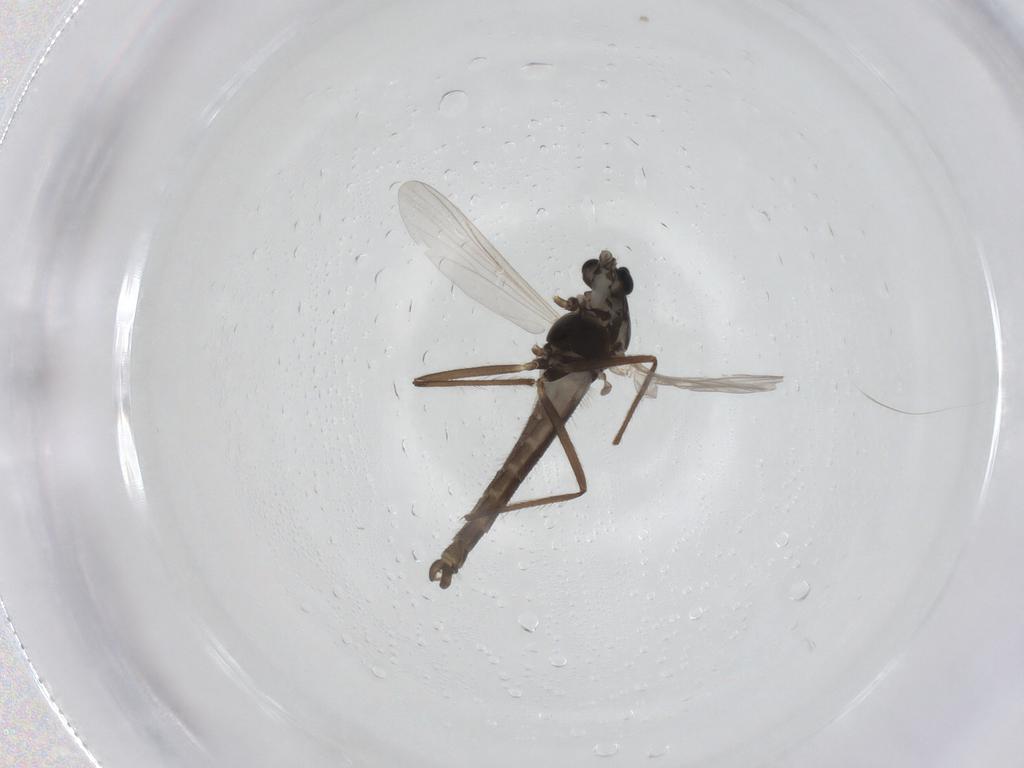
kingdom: Animalia
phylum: Arthropoda
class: Insecta
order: Diptera
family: Chironomidae
